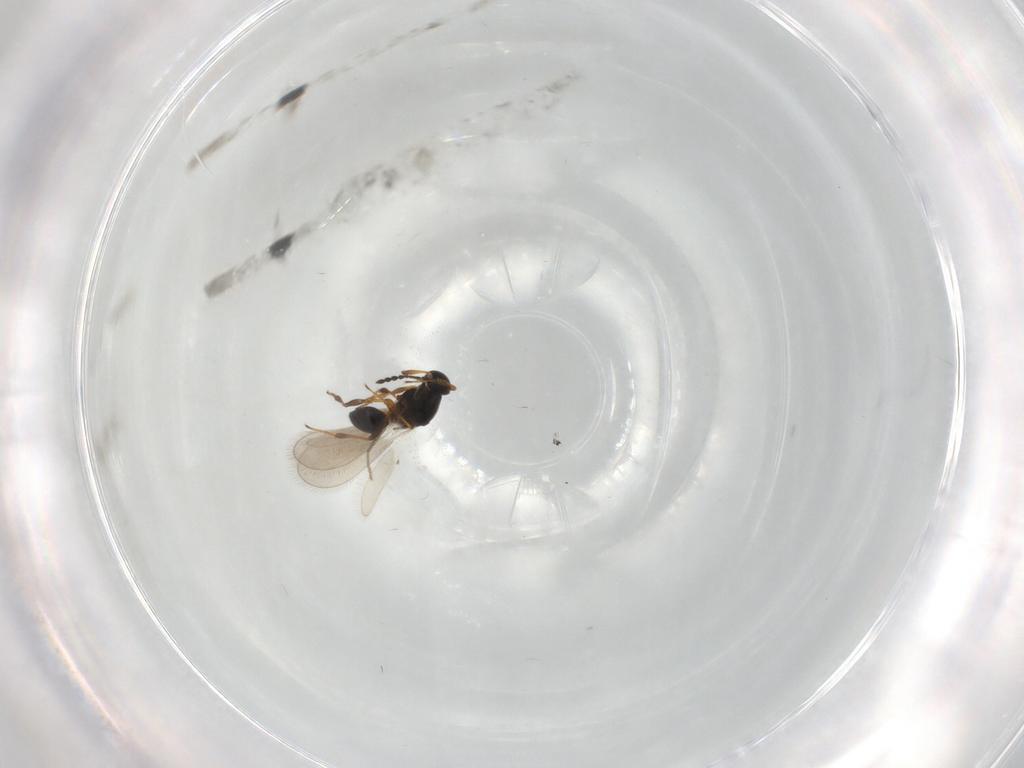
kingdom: Animalia
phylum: Arthropoda
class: Insecta
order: Hymenoptera
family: Platygastridae
